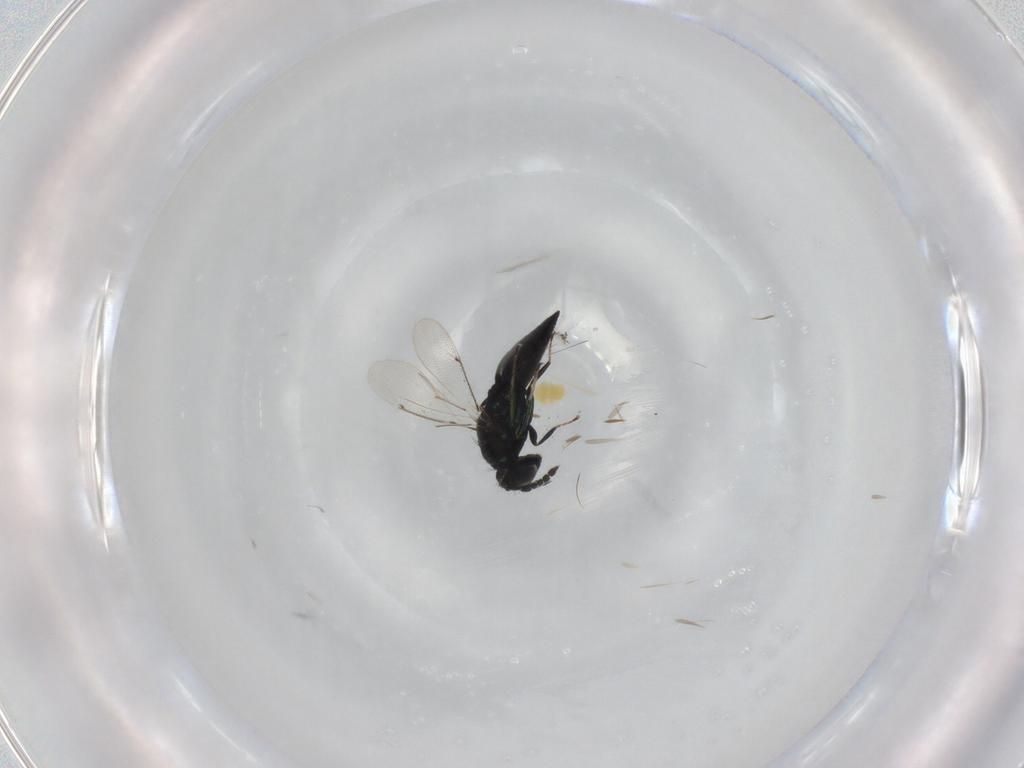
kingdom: Animalia
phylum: Arthropoda
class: Insecta
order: Hymenoptera
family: Eulophidae
